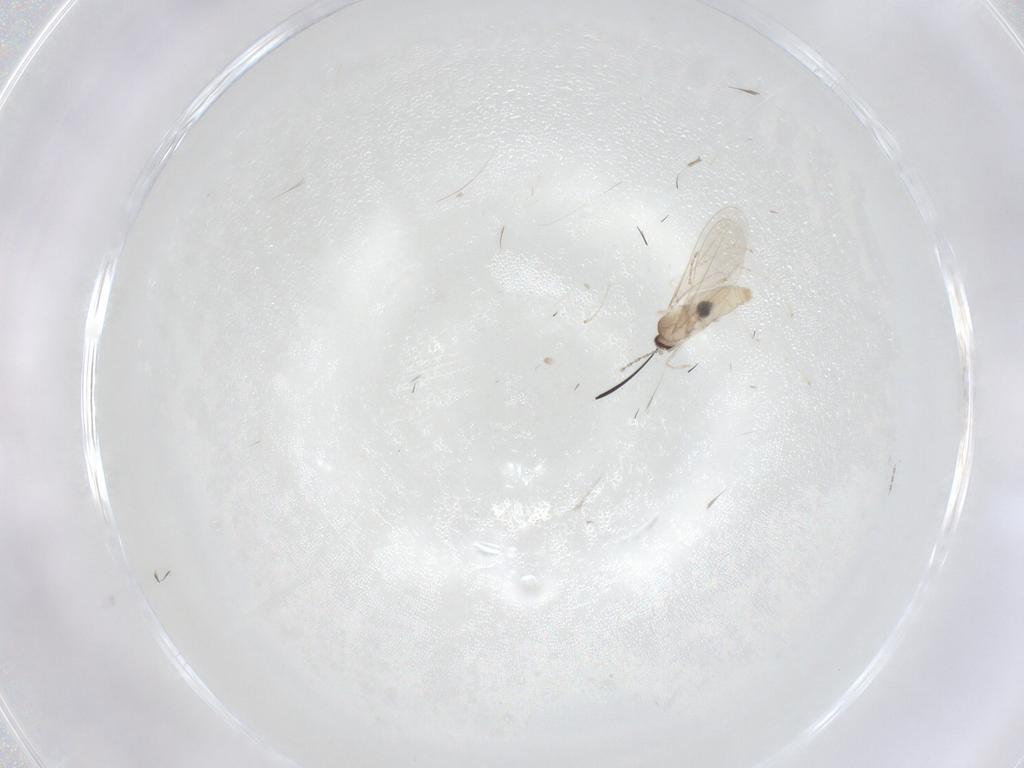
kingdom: Animalia
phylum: Arthropoda
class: Insecta
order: Diptera
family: Cecidomyiidae
